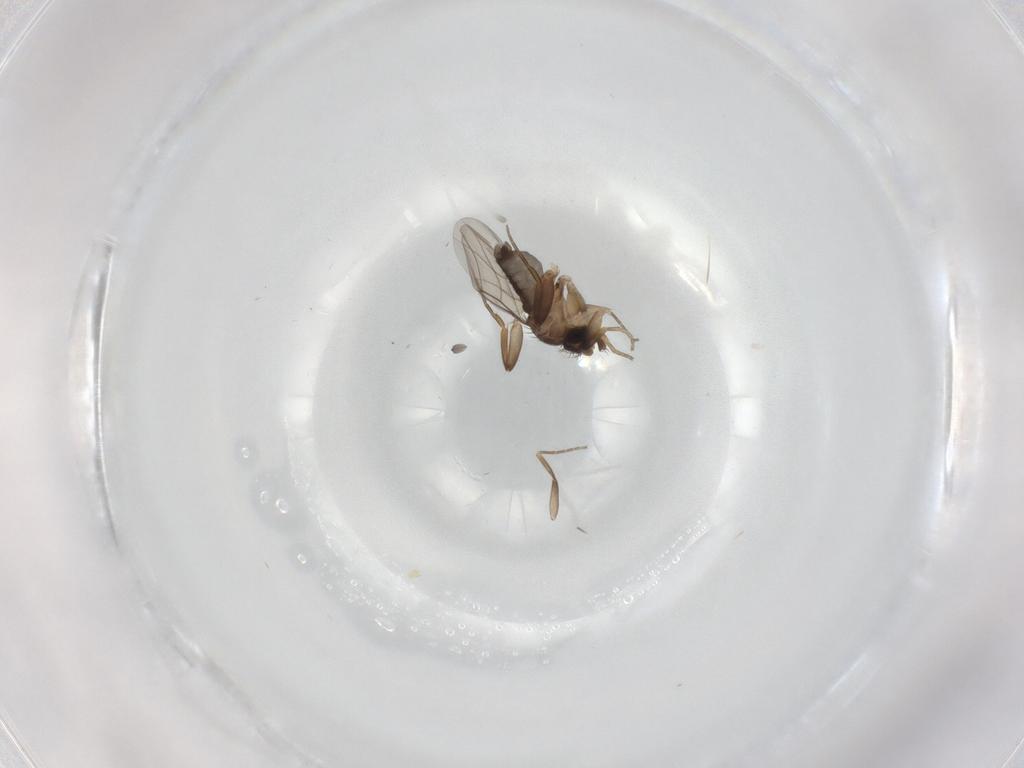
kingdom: Animalia
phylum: Arthropoda
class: Insecta
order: Diptera
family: Phoridae
